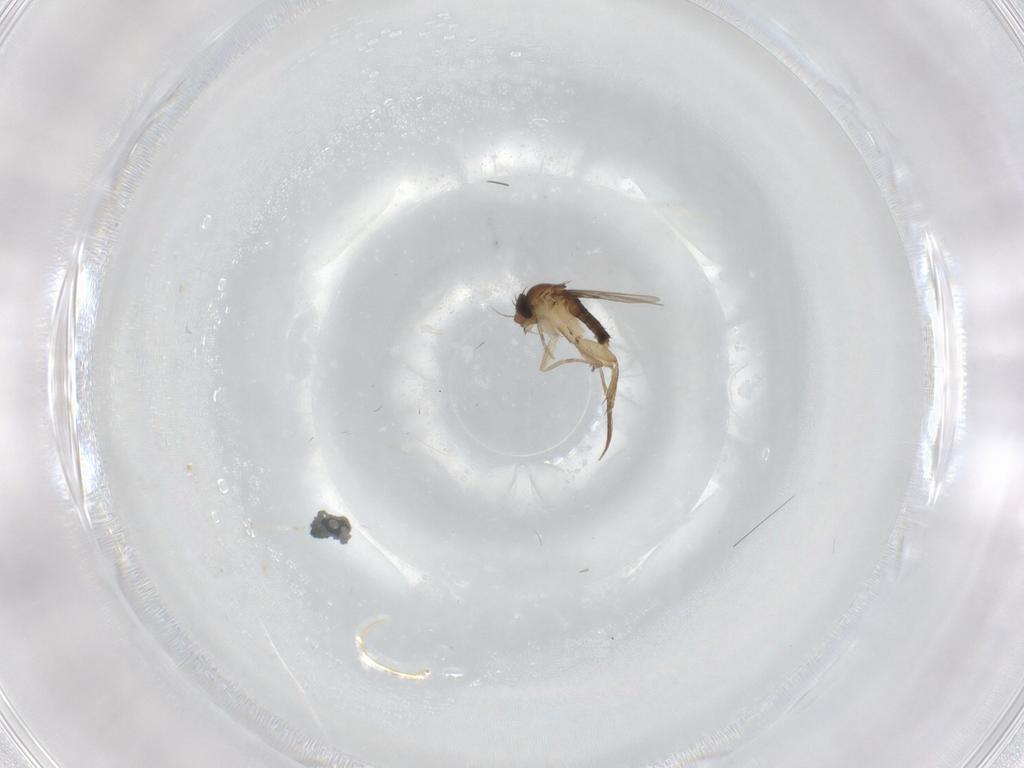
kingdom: Animalia
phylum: Arthropoda
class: Insecta
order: Diptera
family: Phoridae
